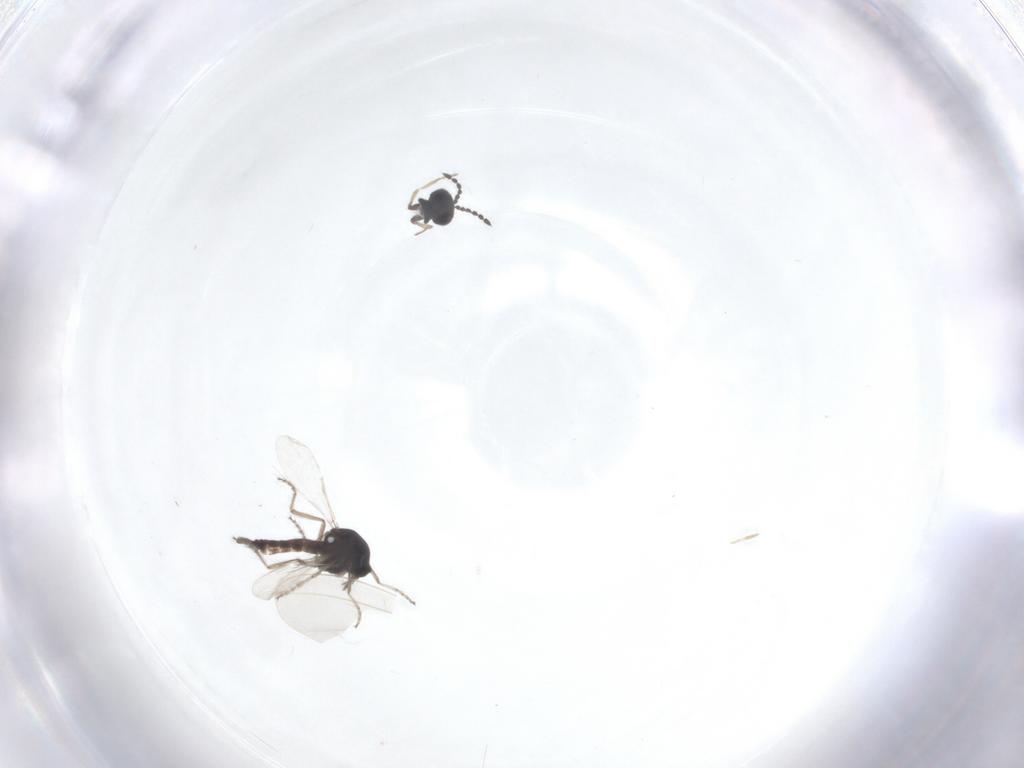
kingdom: Animalia
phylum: Arthropoda
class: Insecta
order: Diptera
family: Ceratopogonidae
